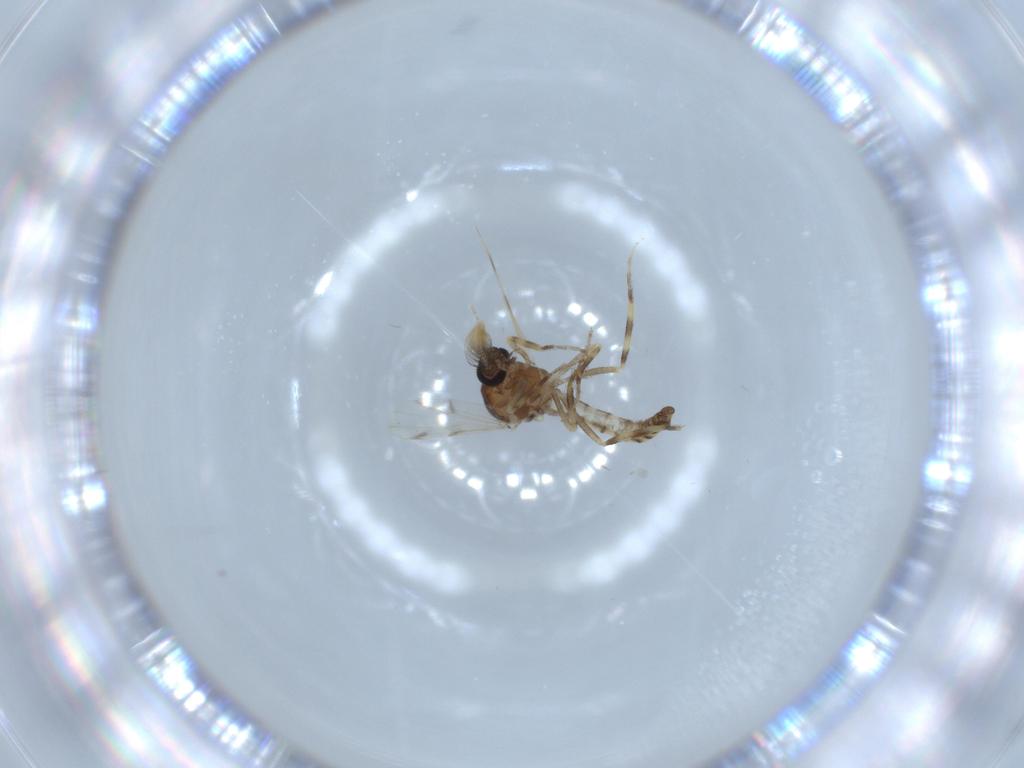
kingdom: Animalia
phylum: Arthropoda
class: Insecta
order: Diptera
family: Ceratopogonidae
